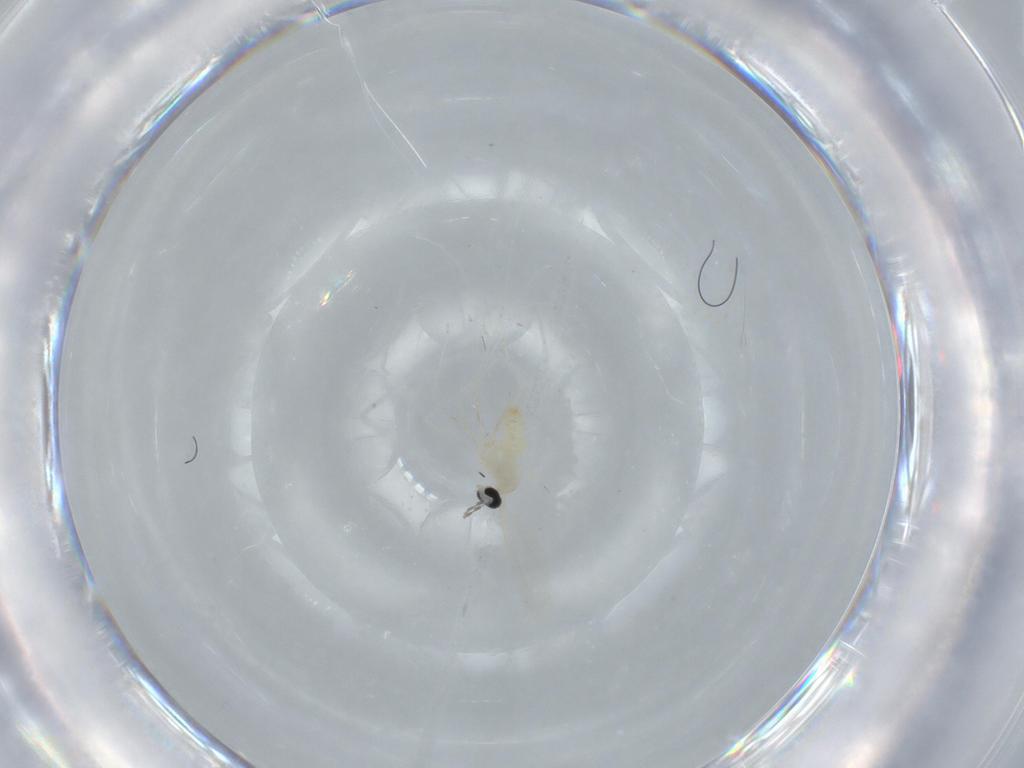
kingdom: Animalia
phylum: Arthropoda
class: Insecta
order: Diptera
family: Cecidomyiidae
